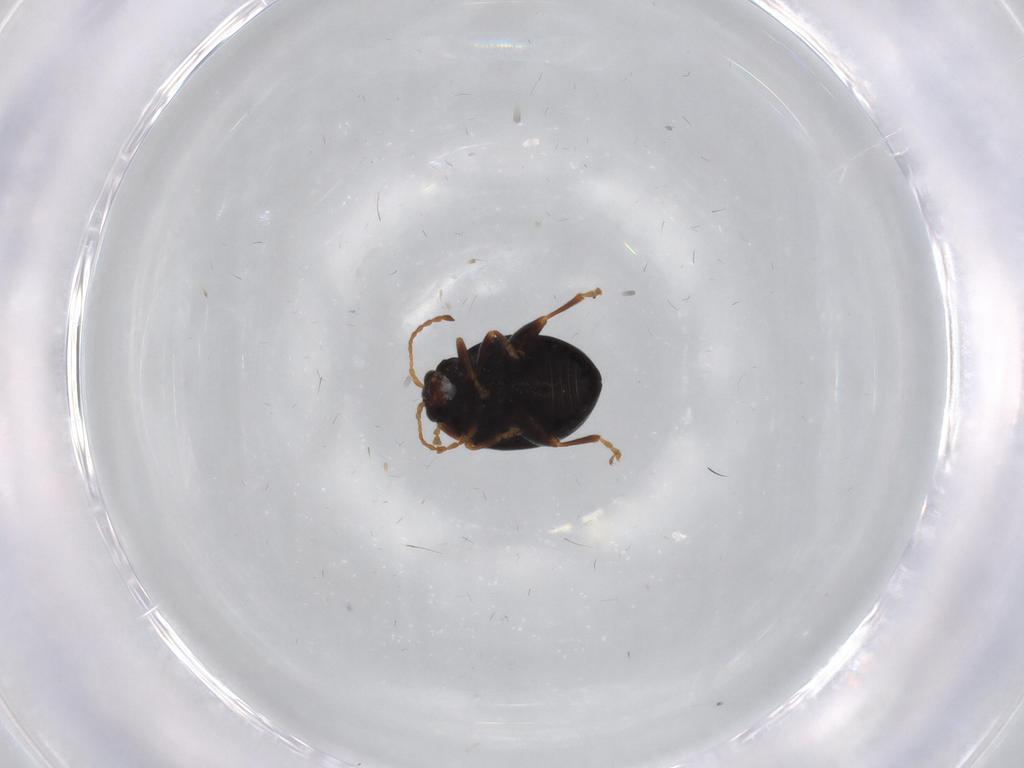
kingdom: Animalia
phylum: Arthropoda
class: Insecta
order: Coleoptera
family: Chrysomelidae
